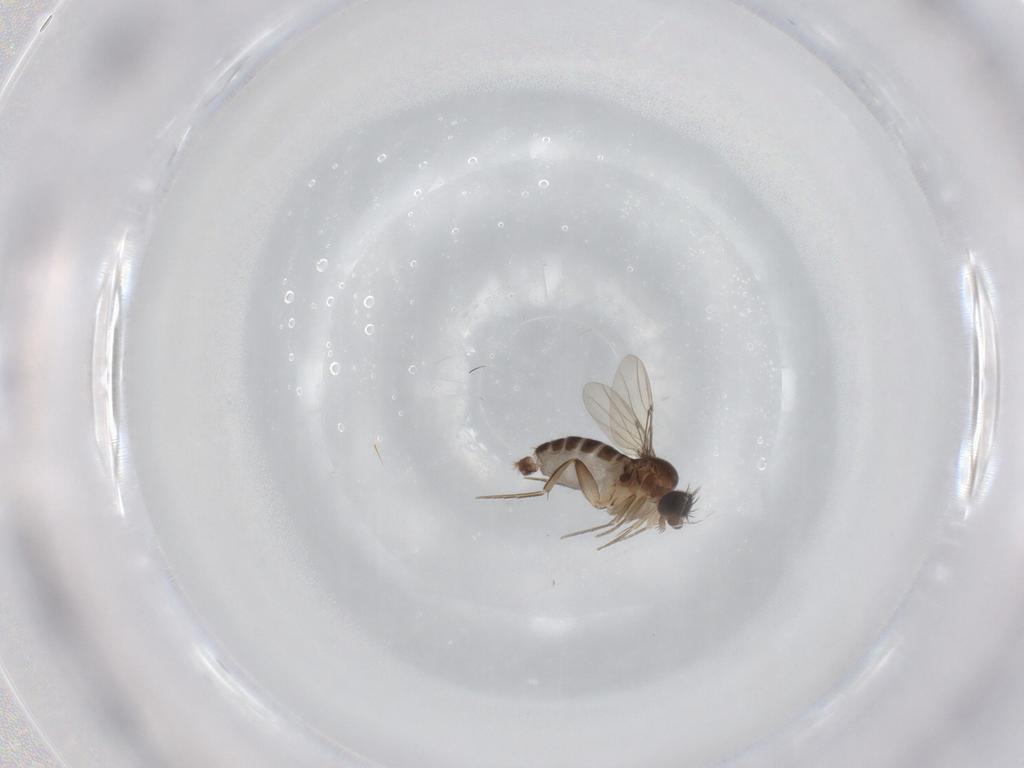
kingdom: Animalia
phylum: Arthropoda
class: Insecta
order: Diptera
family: Phoridae
